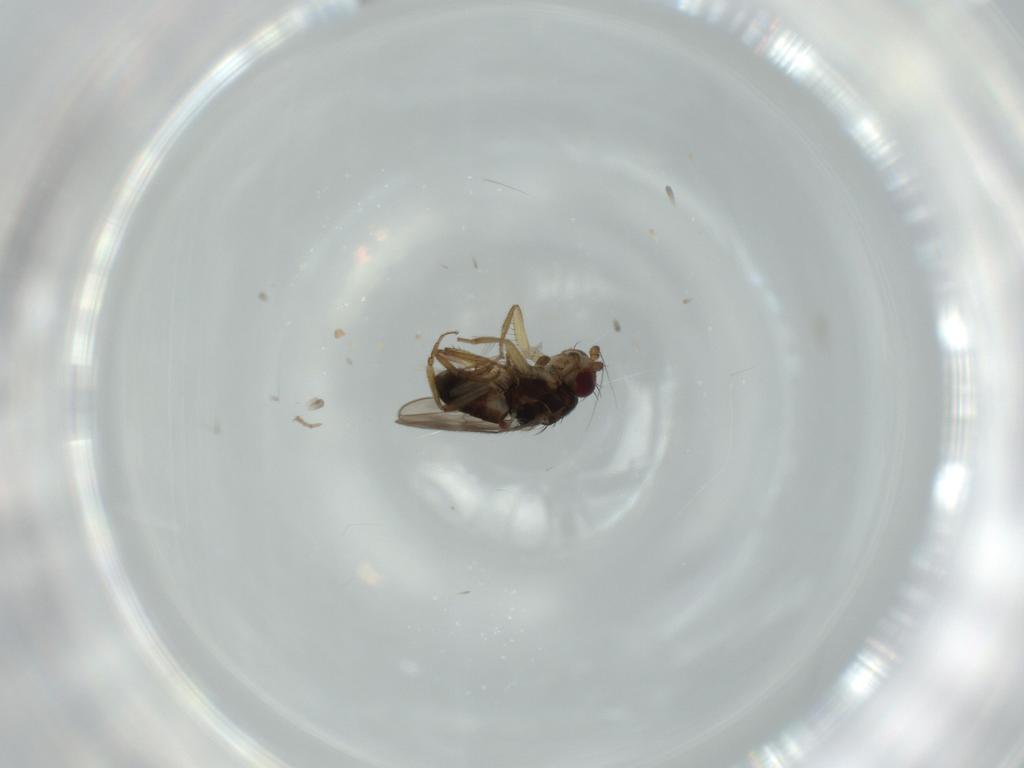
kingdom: Animalia
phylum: Arthropoda
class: Insecta
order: Diptera
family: Sphaeroceridae
